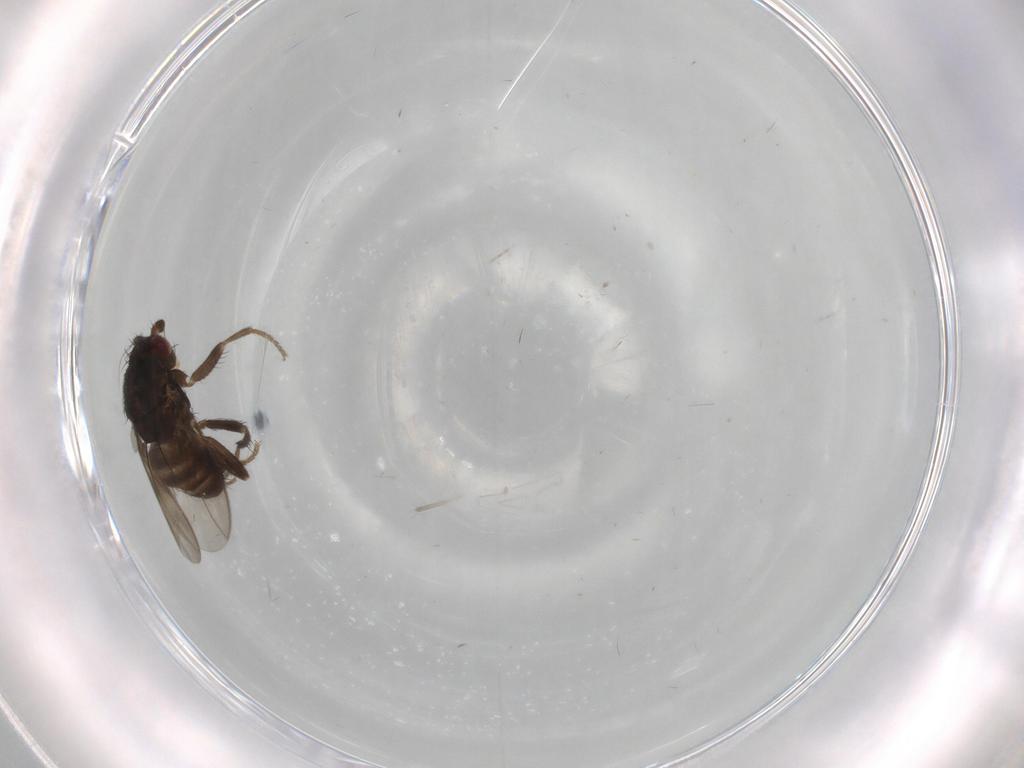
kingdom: Animalia
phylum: Arthropoda
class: Insecta
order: Diptera
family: Sphaeroceridae
